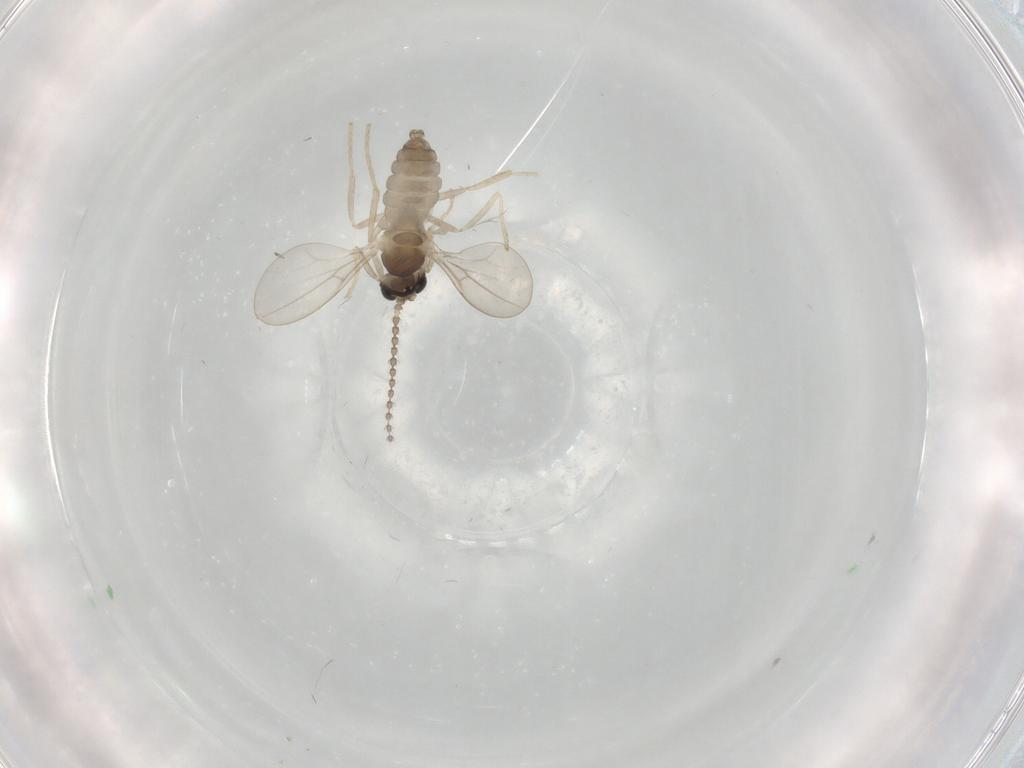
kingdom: Animalia
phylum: Arthropoda
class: Insecta
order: Diptera
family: Cecidomyiidae
